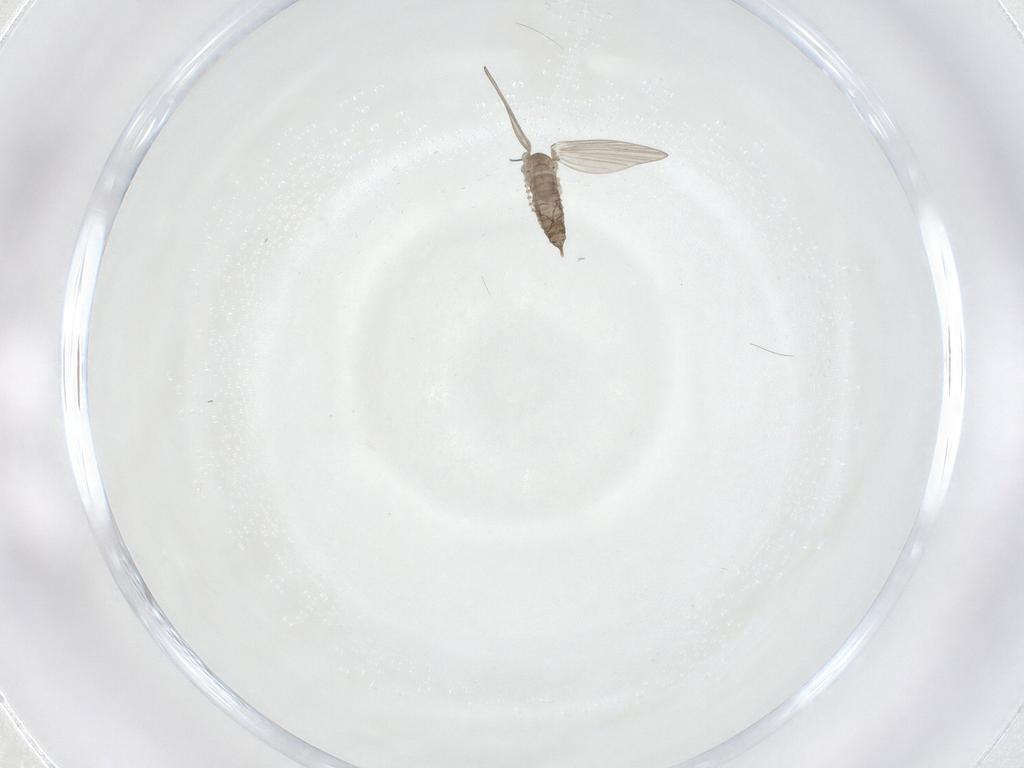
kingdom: Animalia
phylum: Arthropoda
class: Insecta
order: Diptera
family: Psychodidae
